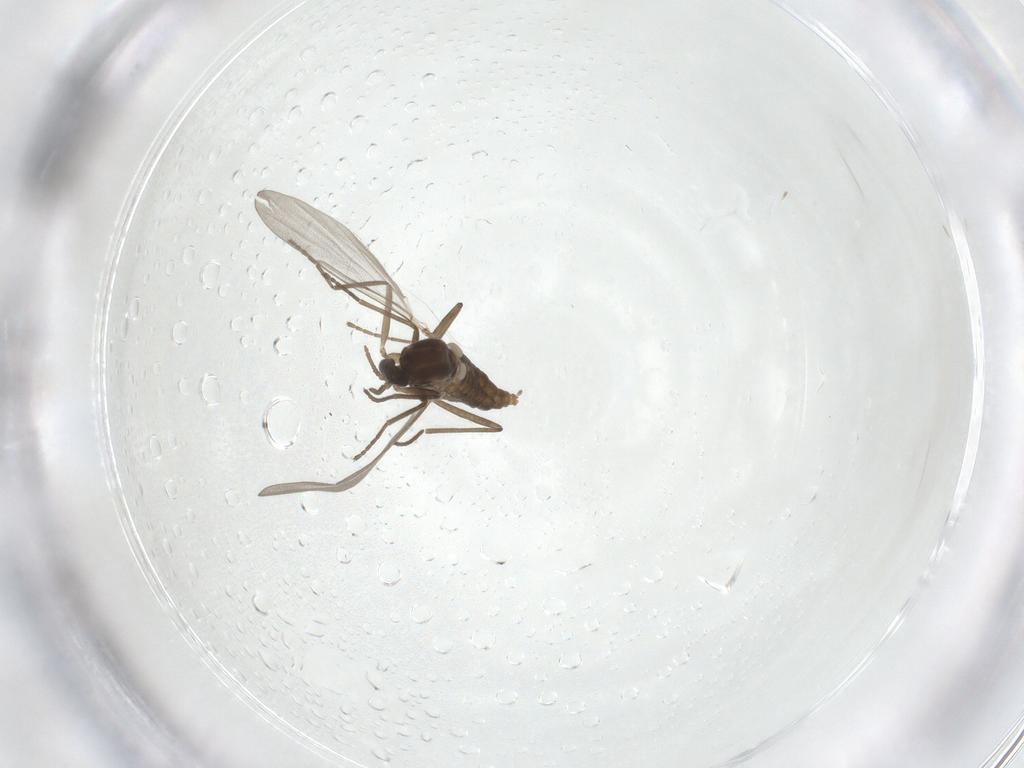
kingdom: Animalia
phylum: Arthropoda
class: Insecta
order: Diptera
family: Cecidomyiidae
